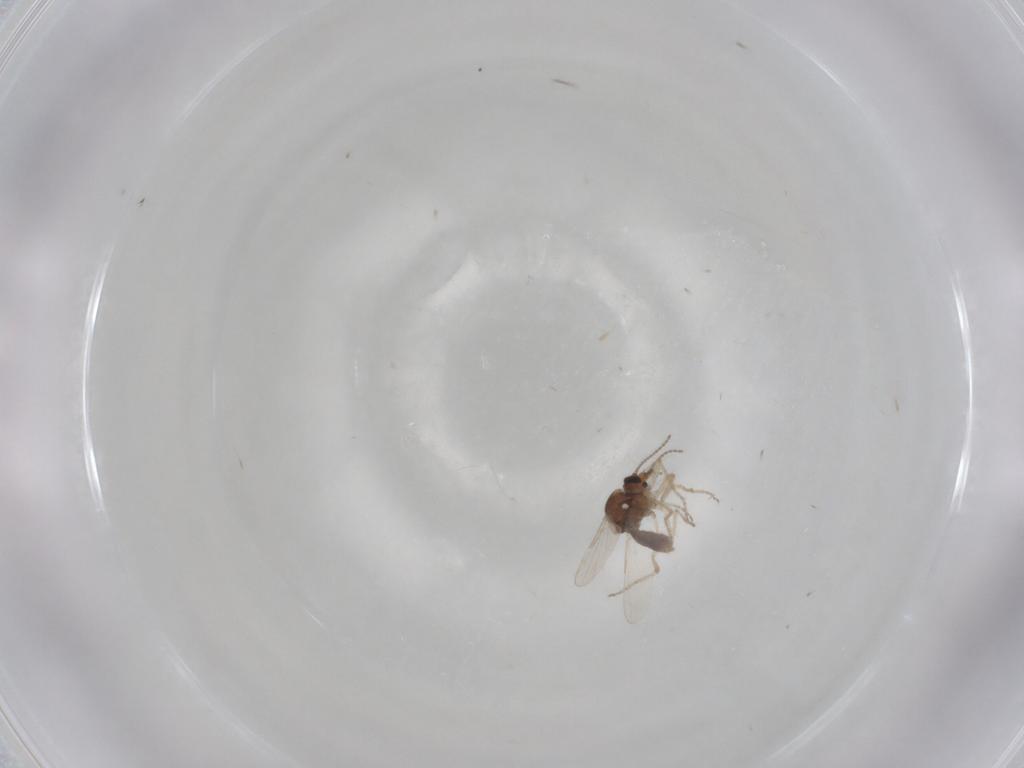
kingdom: Animalia
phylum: Arthropoda
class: Insecta
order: Diptera
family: Ceratopogonidae
